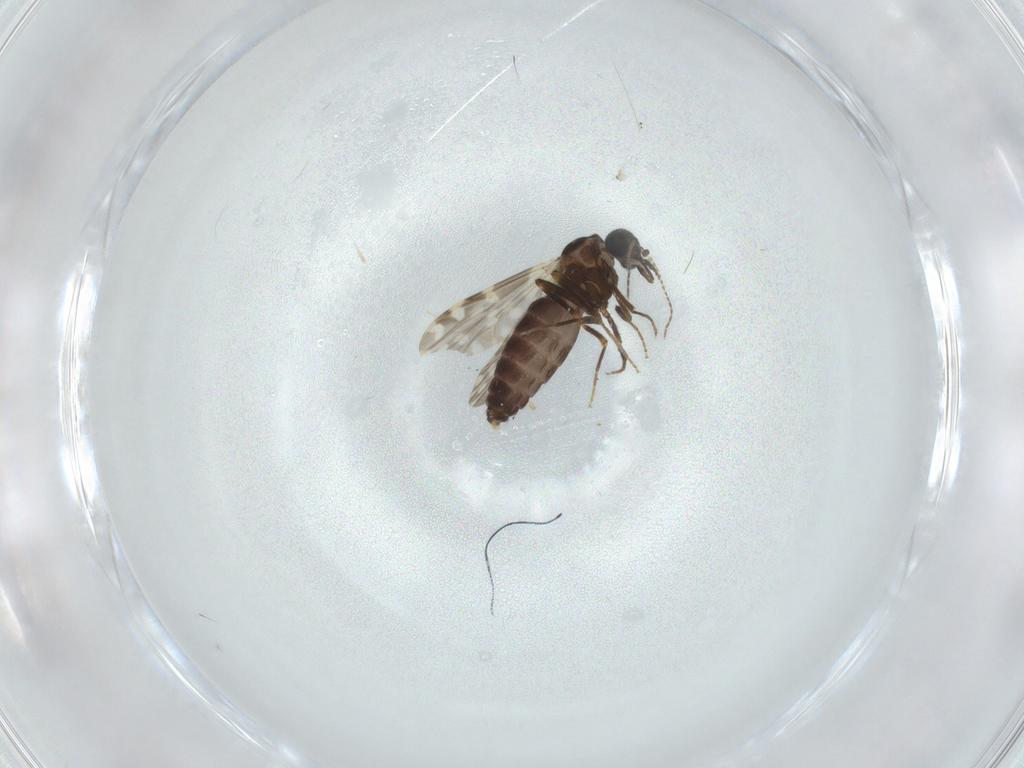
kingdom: Animalia
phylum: Arthropoda
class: Insecta
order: Diptera
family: Ceratopogonidae
